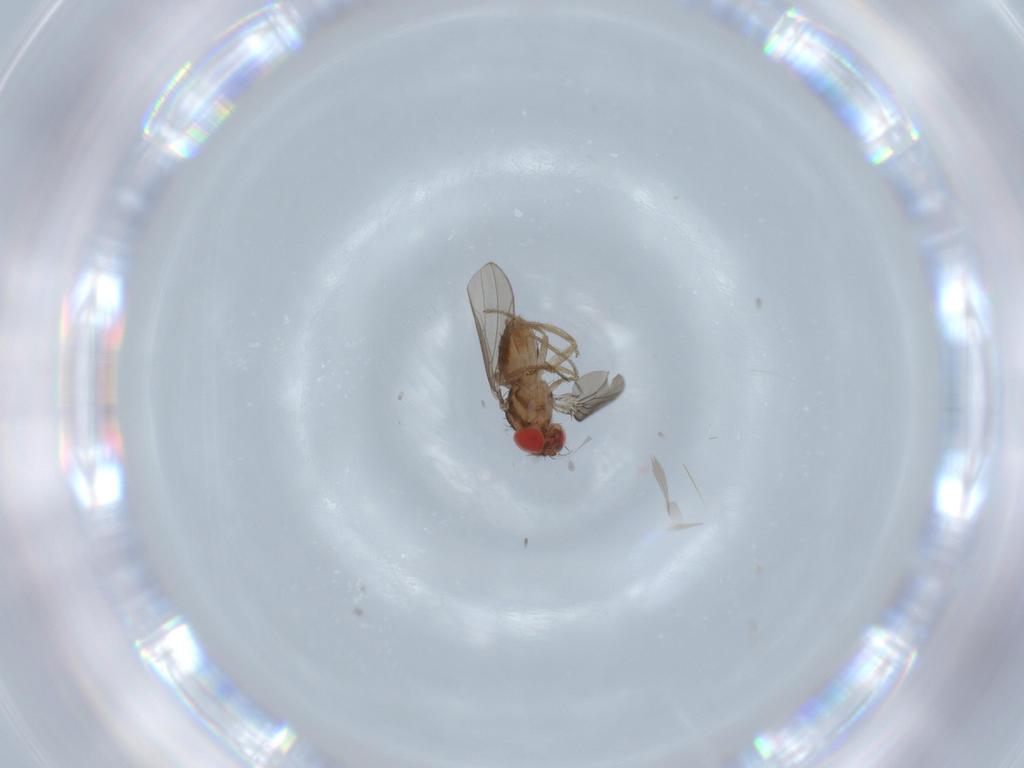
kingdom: Animalia
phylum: Arthropoda
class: Insecta
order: Diptera
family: Drosophilidae
